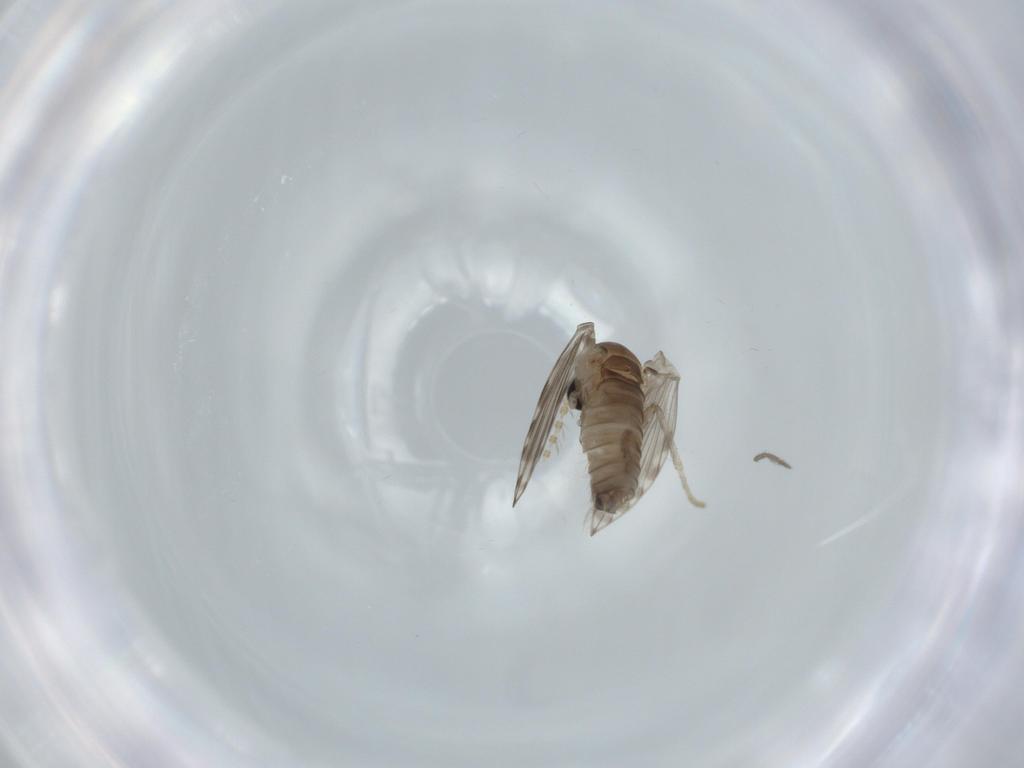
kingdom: Animalia
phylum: Arthropoda
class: Insecta
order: Diptera
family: Psychodidae
